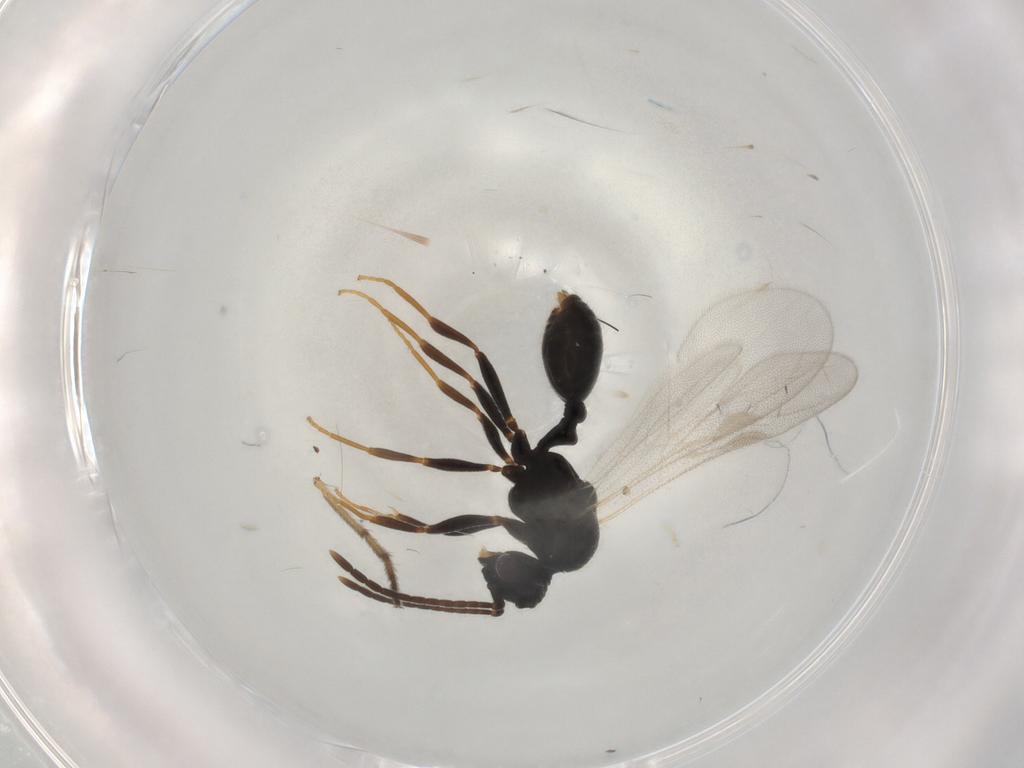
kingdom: Animalia
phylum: Arthropoda
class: Insecta
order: Hymenoptera
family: Formicidae
